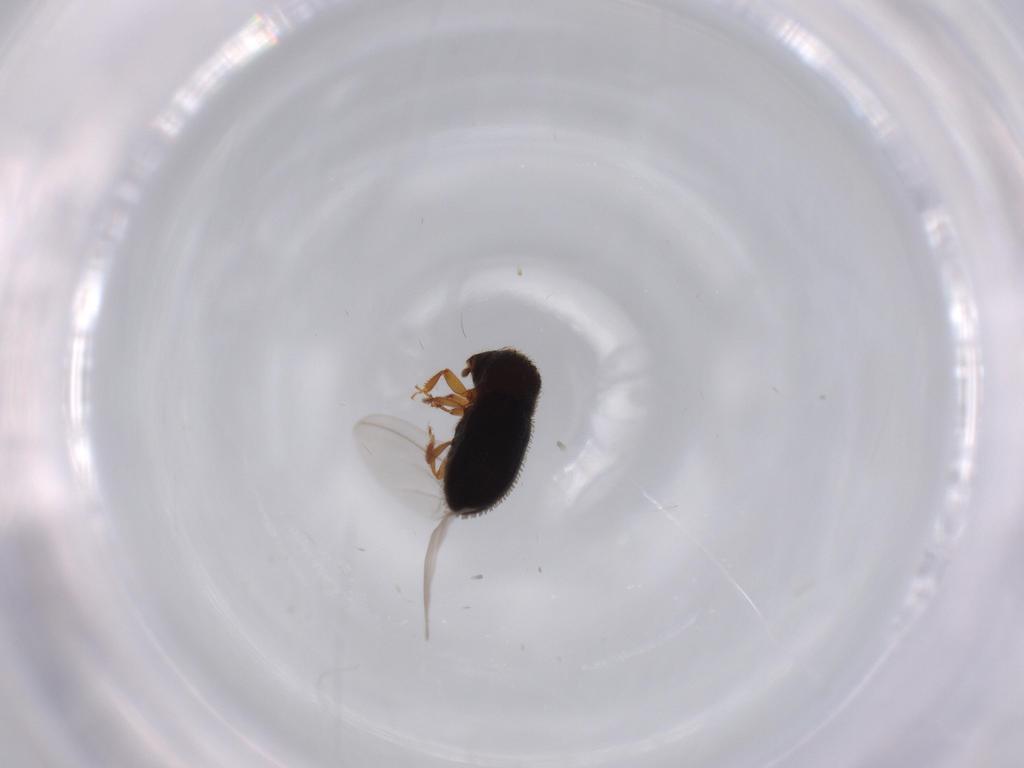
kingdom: Animalia
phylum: Arthropoda
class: Insecta
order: Coleoptera
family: Curculionidae
